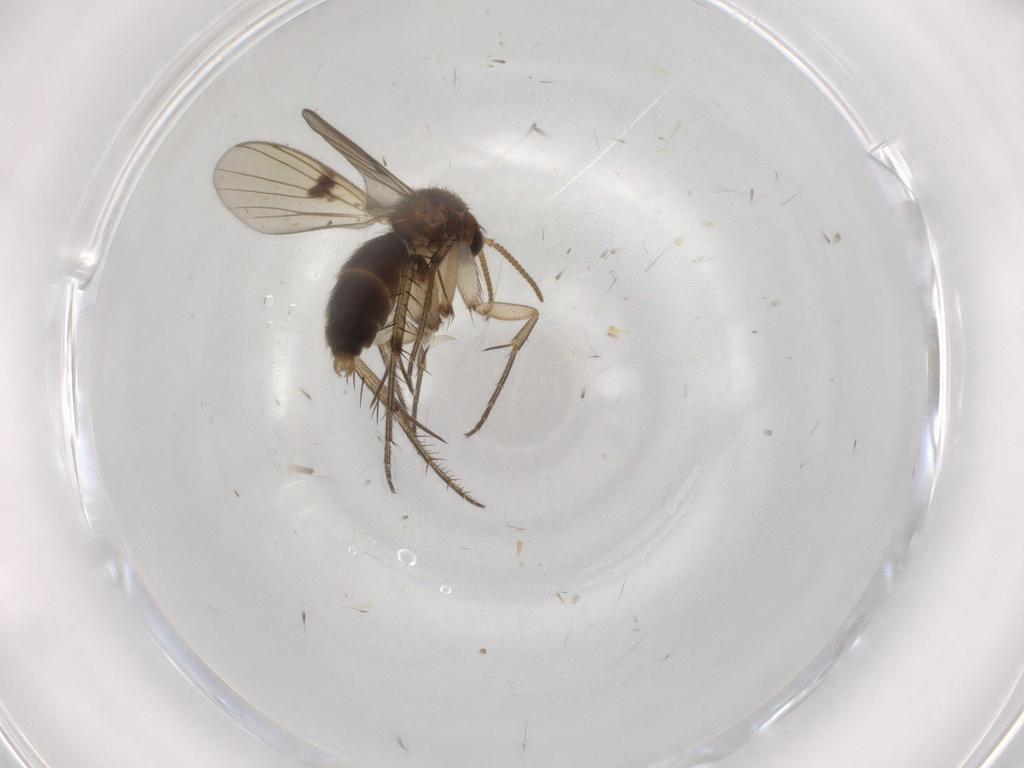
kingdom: Animalia
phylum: Arthropoda
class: Insecta
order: Diptera
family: Mycetophilidae
